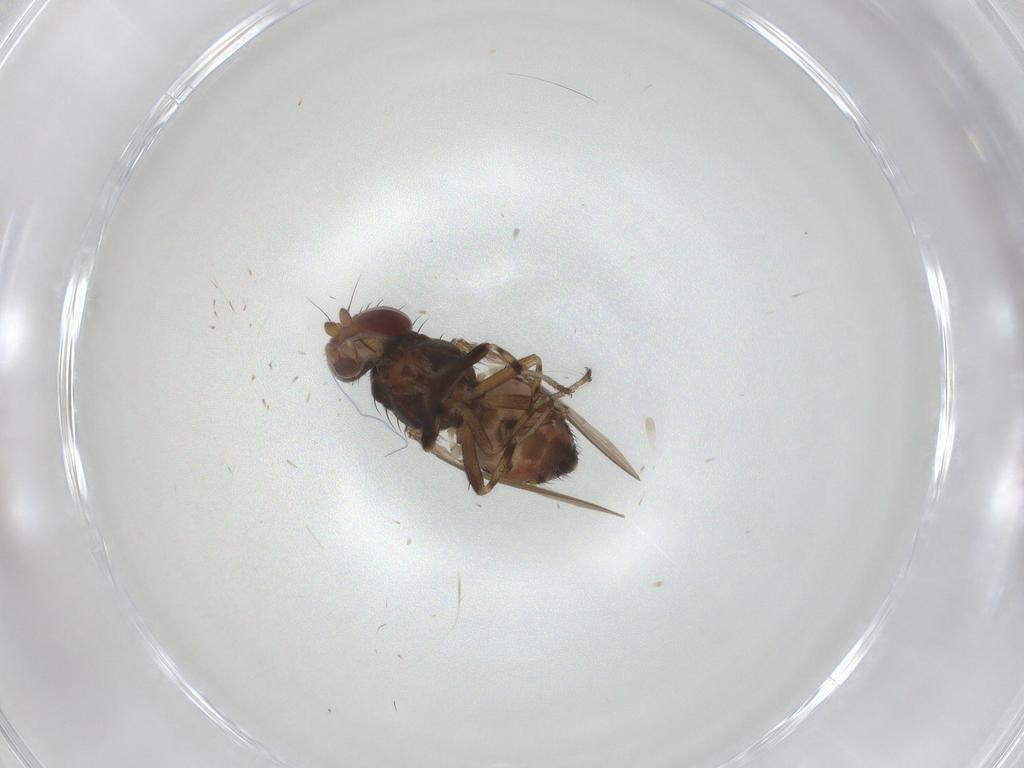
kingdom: Animalia
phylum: Arthropoda
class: Insecta
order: Diptera
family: Heleomyzidae
